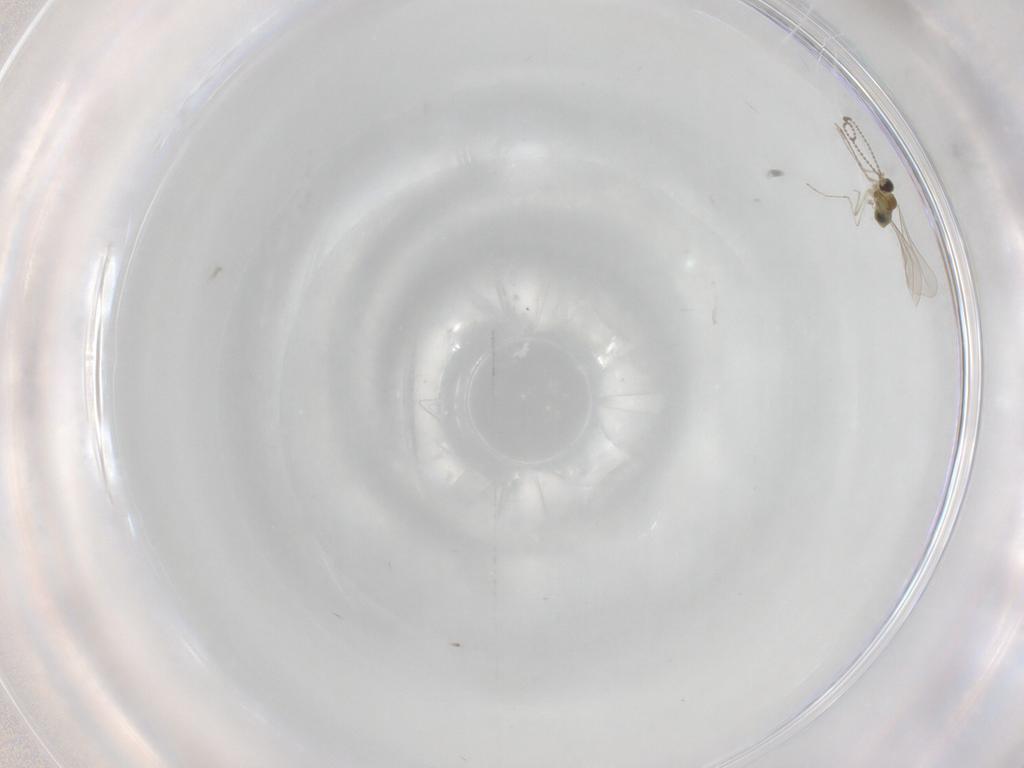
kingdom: Animalia
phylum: Arthropoda
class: Insecta
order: Diptera
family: Cecidomyiidae
